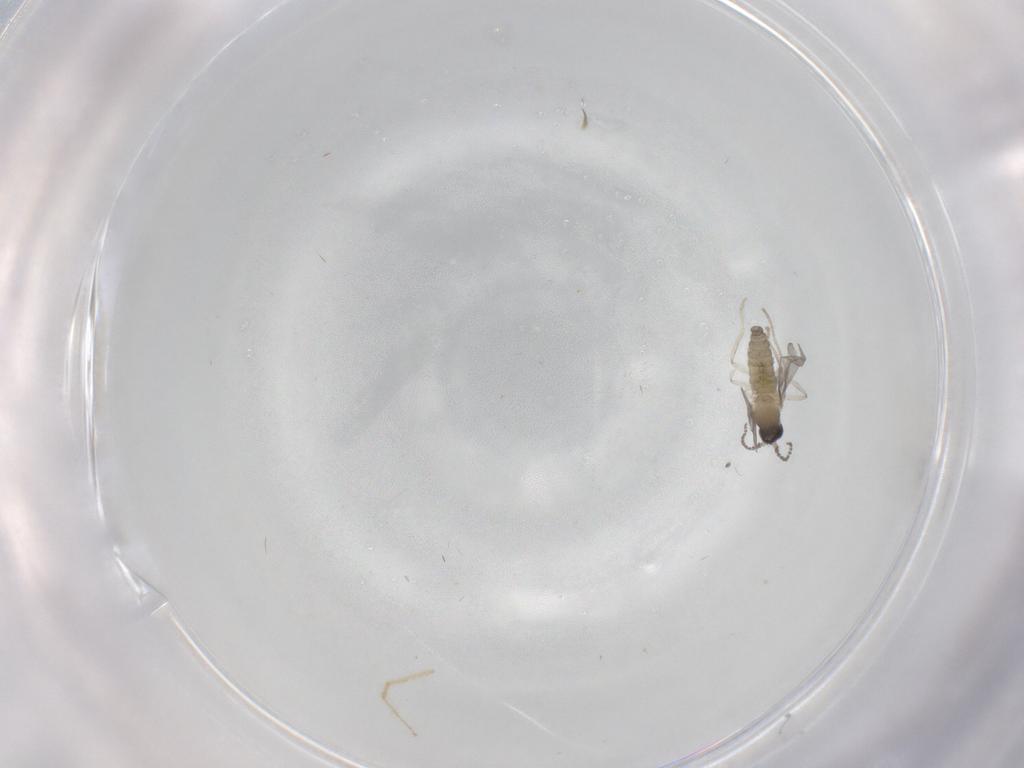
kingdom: Animalia
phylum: Arthropoda
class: Insecta
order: Diptera
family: Cecidomyiidae
